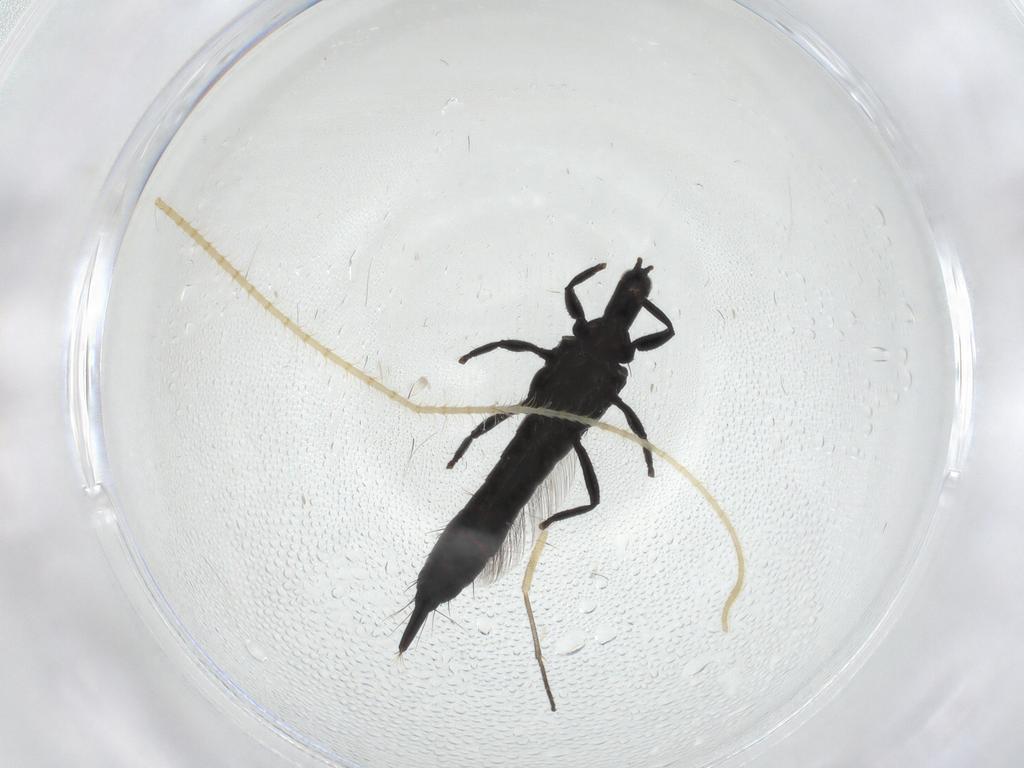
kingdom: Animalia
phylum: Arthropoda
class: Insecta
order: Thysanoptera
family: Phlaeothripidae
